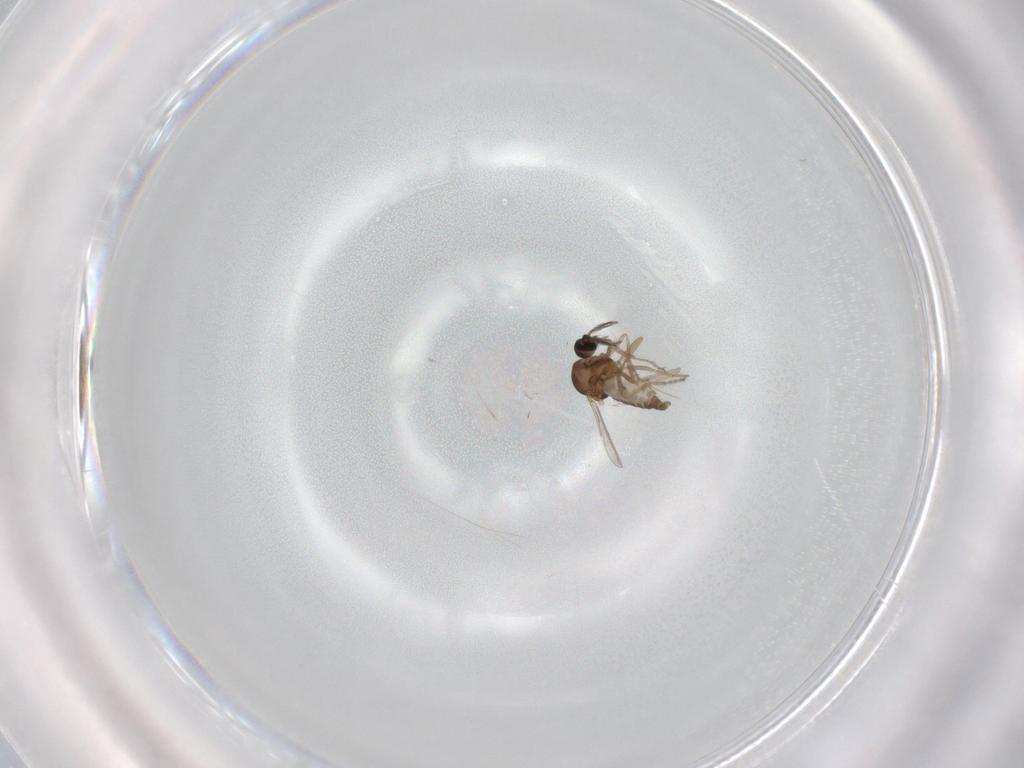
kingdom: Animalia
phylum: Arthropoda
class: Insecta
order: Diptera
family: Ceratopogonidae
